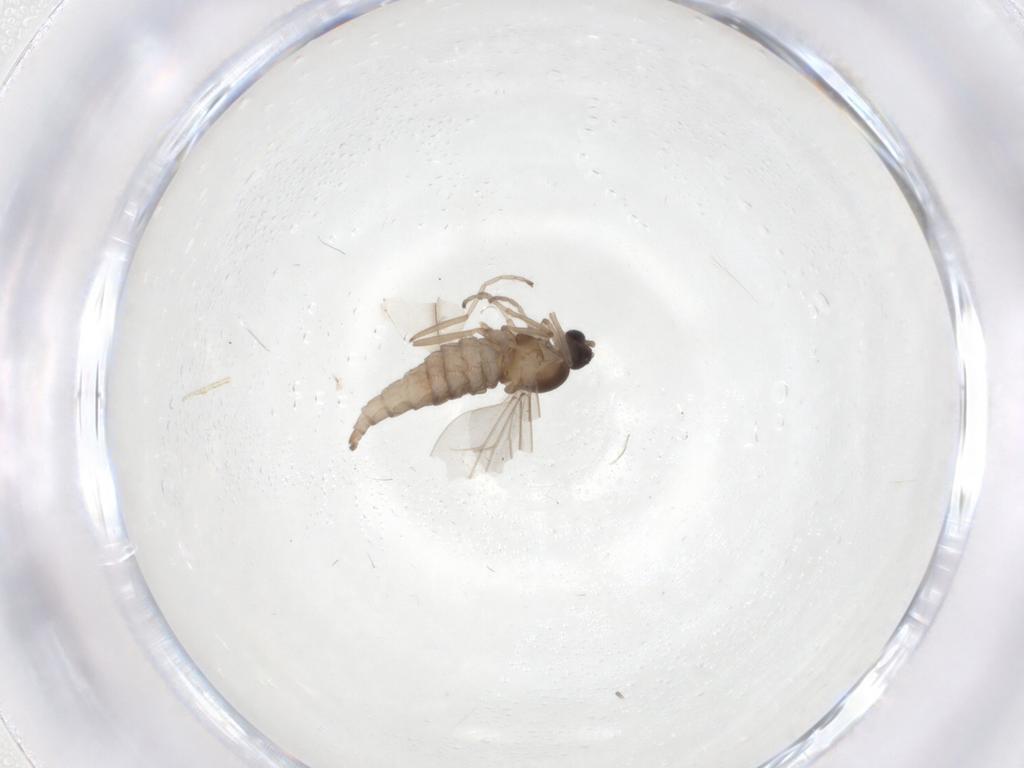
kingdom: Animalia
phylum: Arthropoda
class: Insecta
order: Diptera
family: Cecidomyiidae
